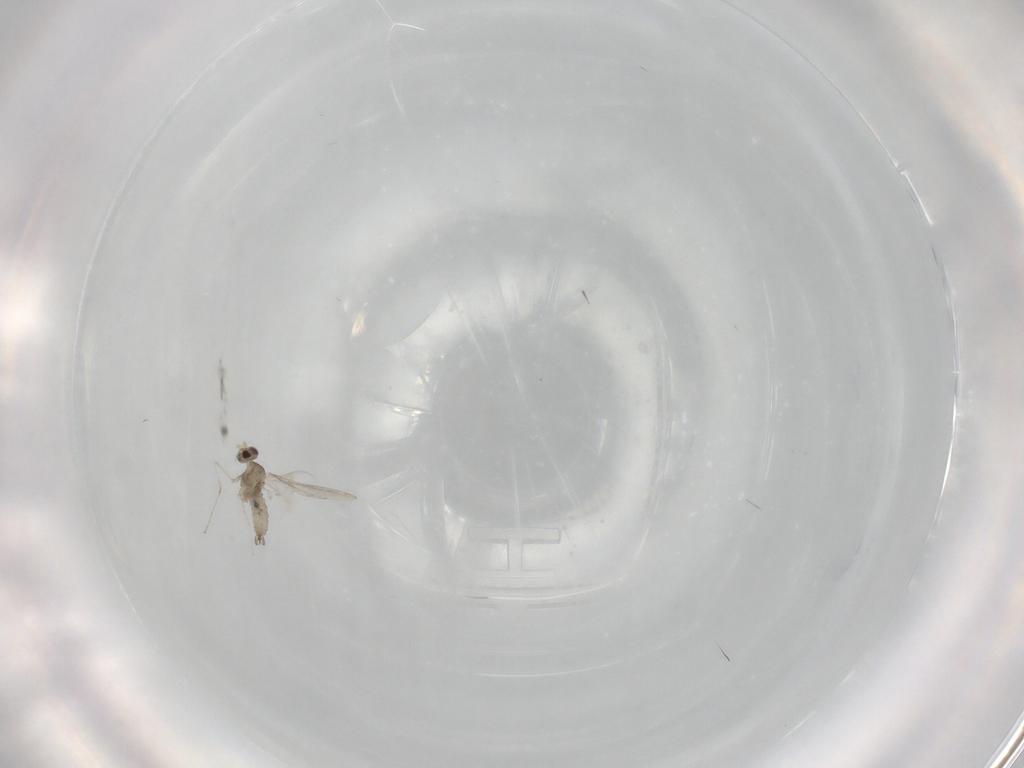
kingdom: Animalia
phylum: Arthropoda
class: Insecta
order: Diptera
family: Cecidomyiidae
